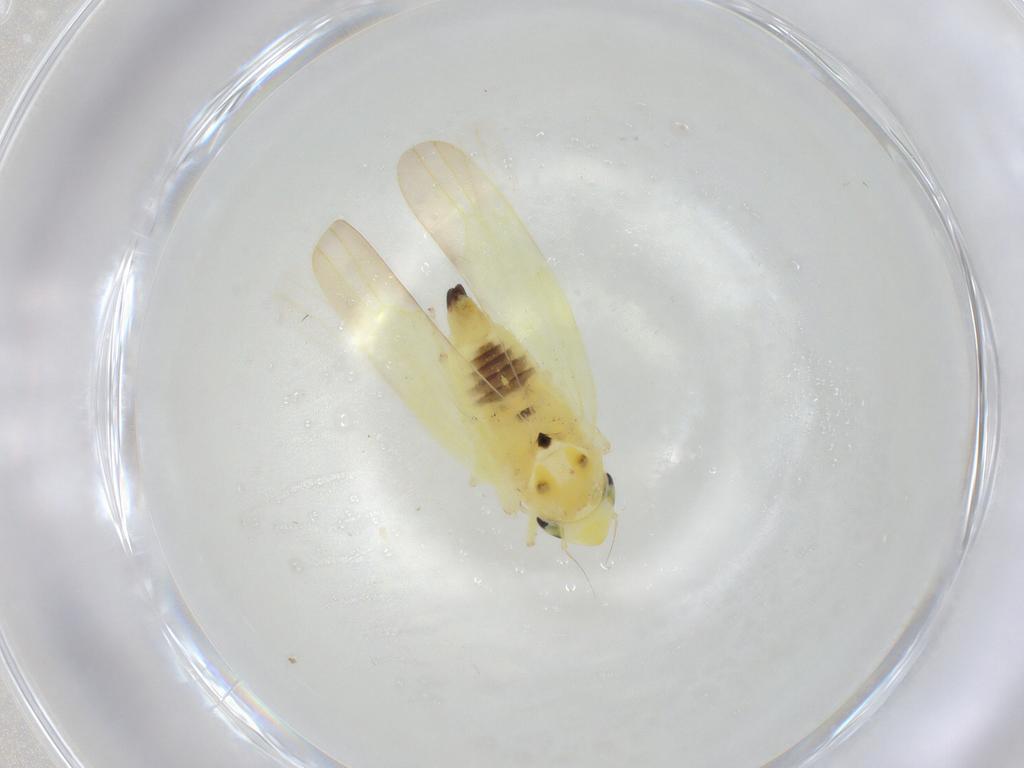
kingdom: Animalia
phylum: Arthropoda
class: Insecta
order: Hemiptera
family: Cicadellidae
